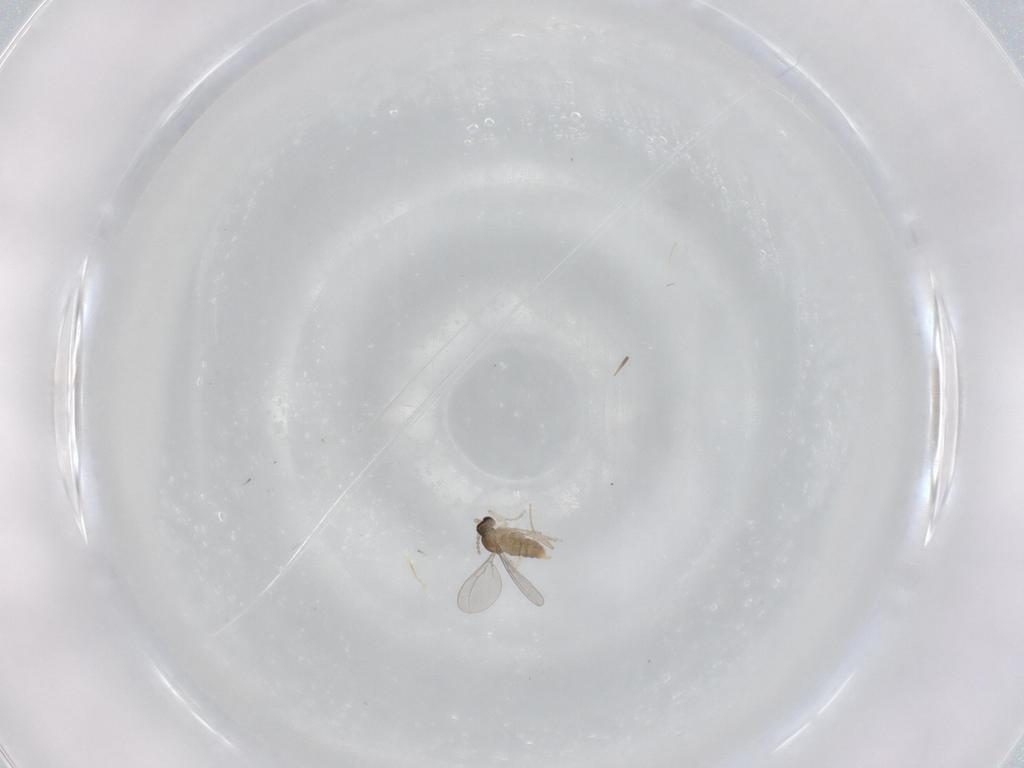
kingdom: Animalia
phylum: Arthropoda
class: Insecta
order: Diptera
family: Cecidomyiidae
